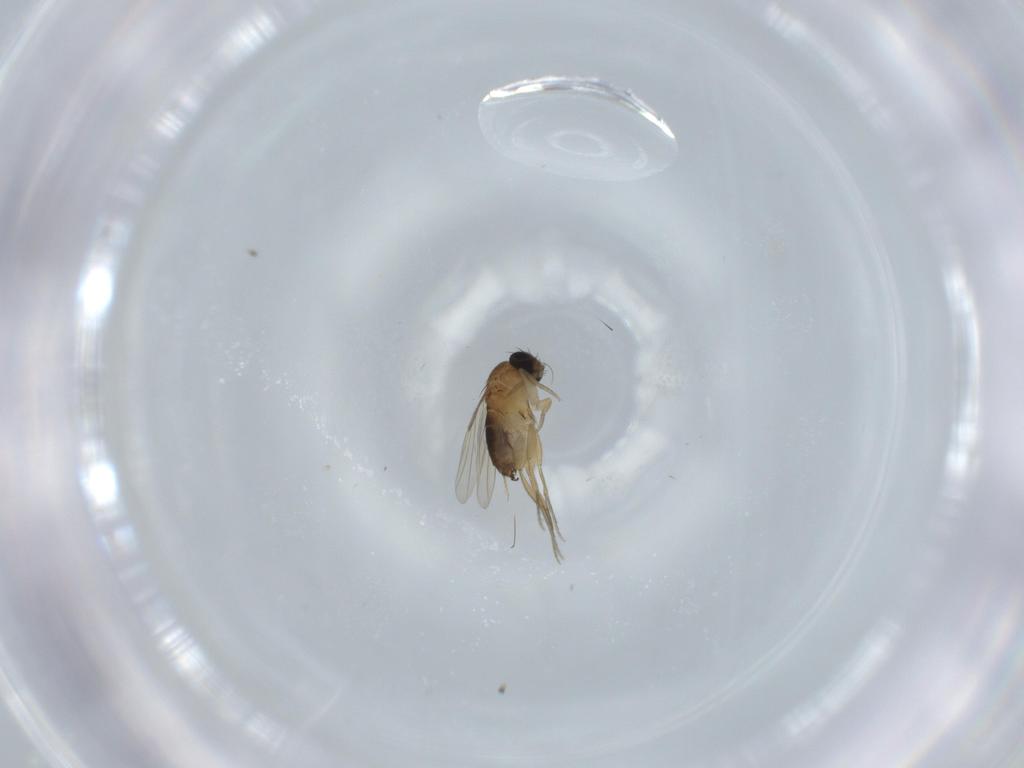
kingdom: Animalia
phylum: Arthropoda
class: Insecta
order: Diptera
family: Phoridae
